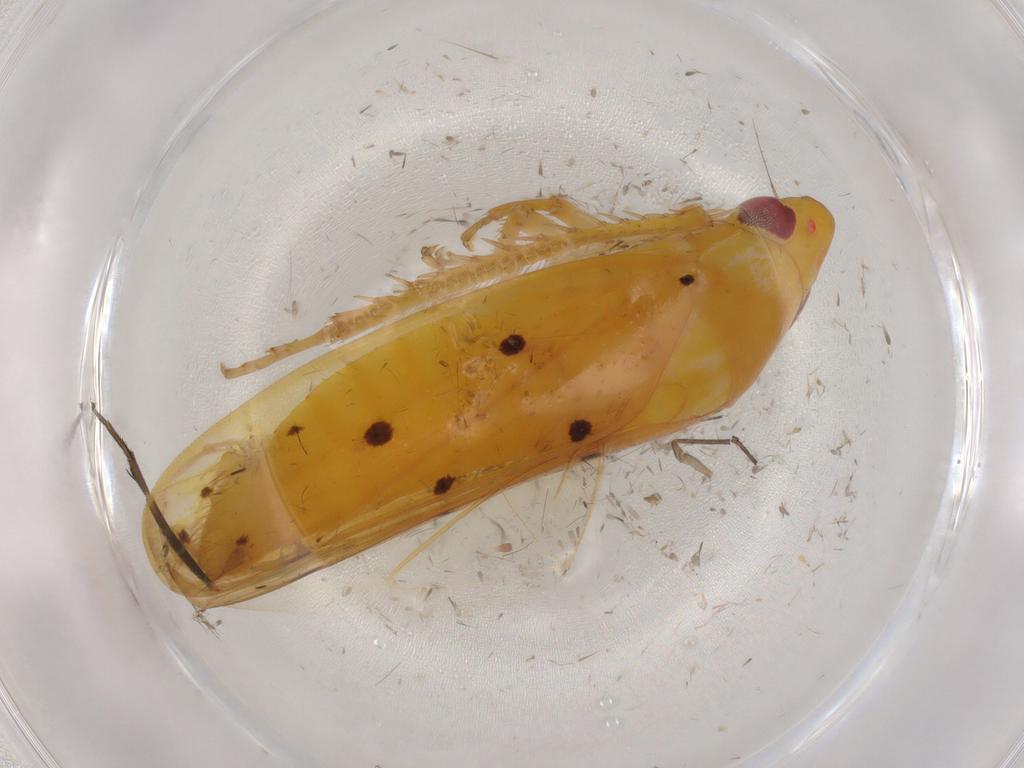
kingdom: Animalia
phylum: Arthropoda
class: Insecta
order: Hemiptera
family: Cicadellidae
